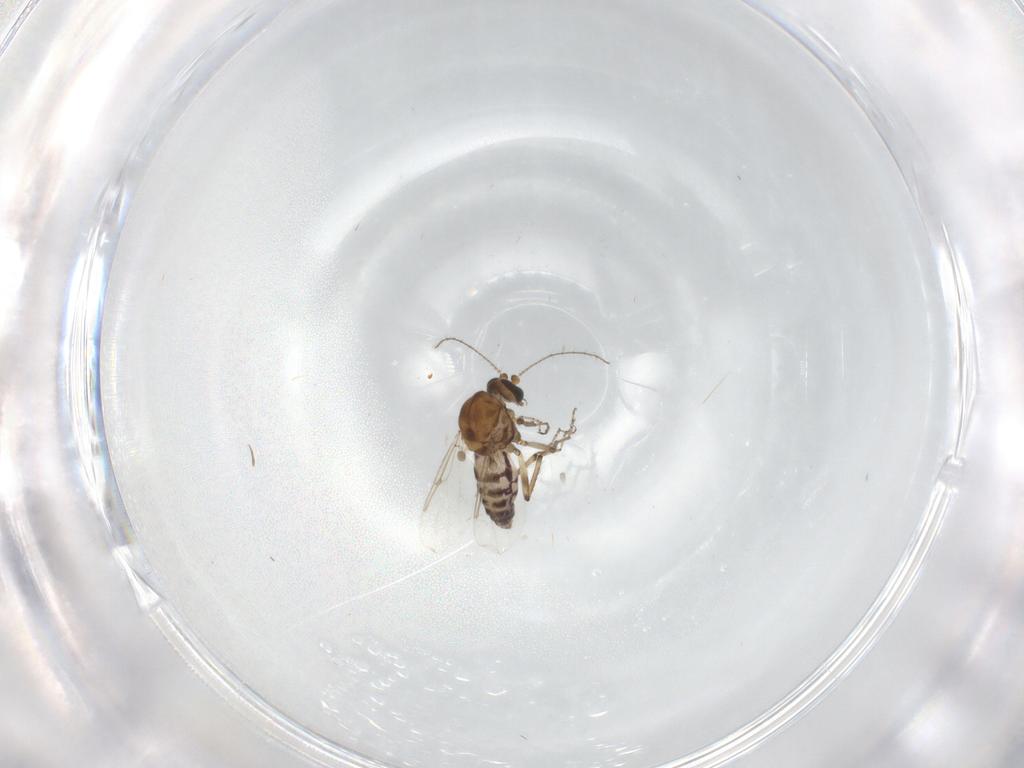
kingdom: Animalia
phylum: Arthropoda
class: Insecta
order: Diptera
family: Ceratopogonidae
